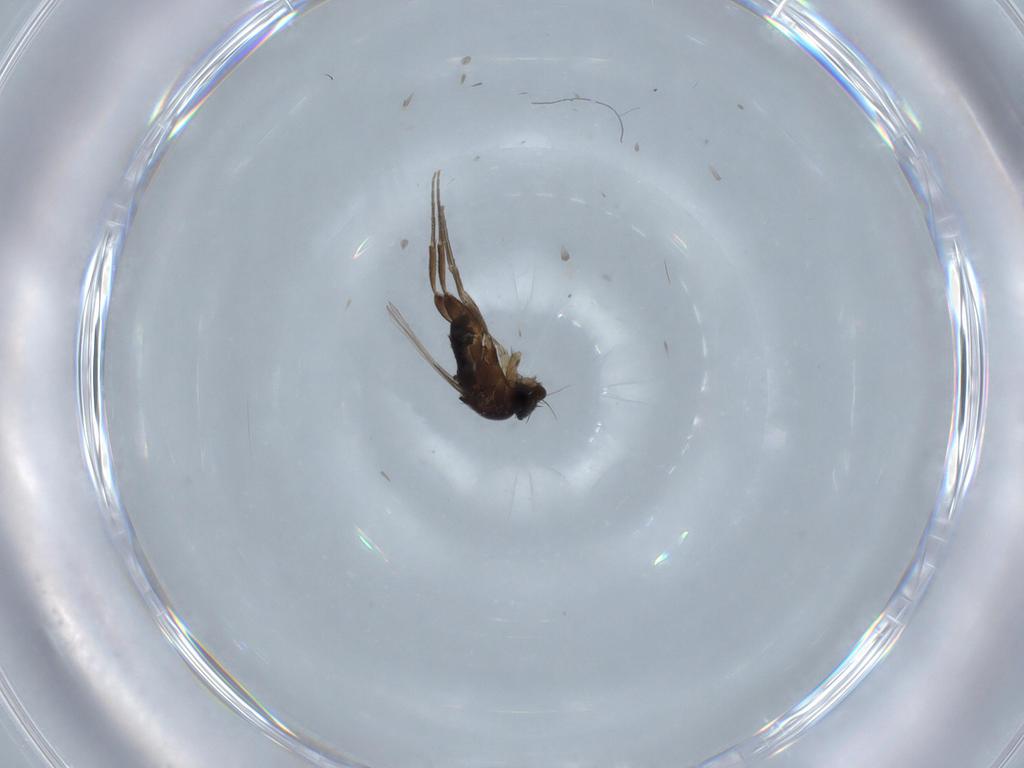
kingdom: Animalia
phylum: Arthropoda
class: Insecta
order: Diptera
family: Phoridae
